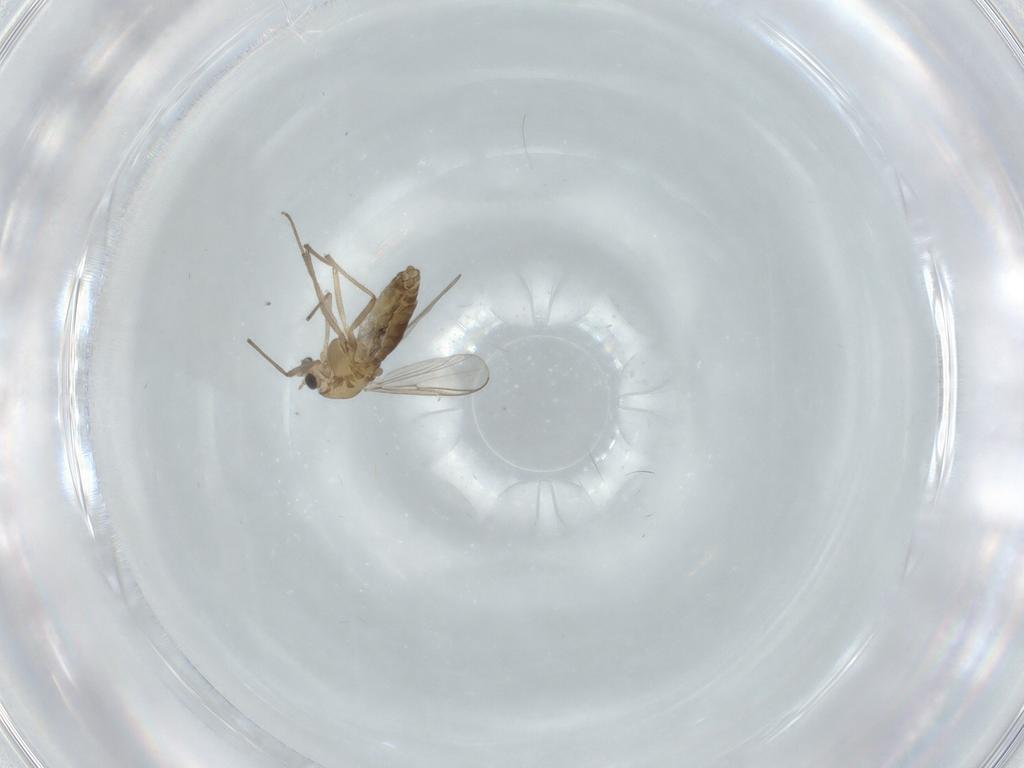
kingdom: Animalia
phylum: Arthropoda
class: Insecta
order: Diptera
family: Chironomidae
